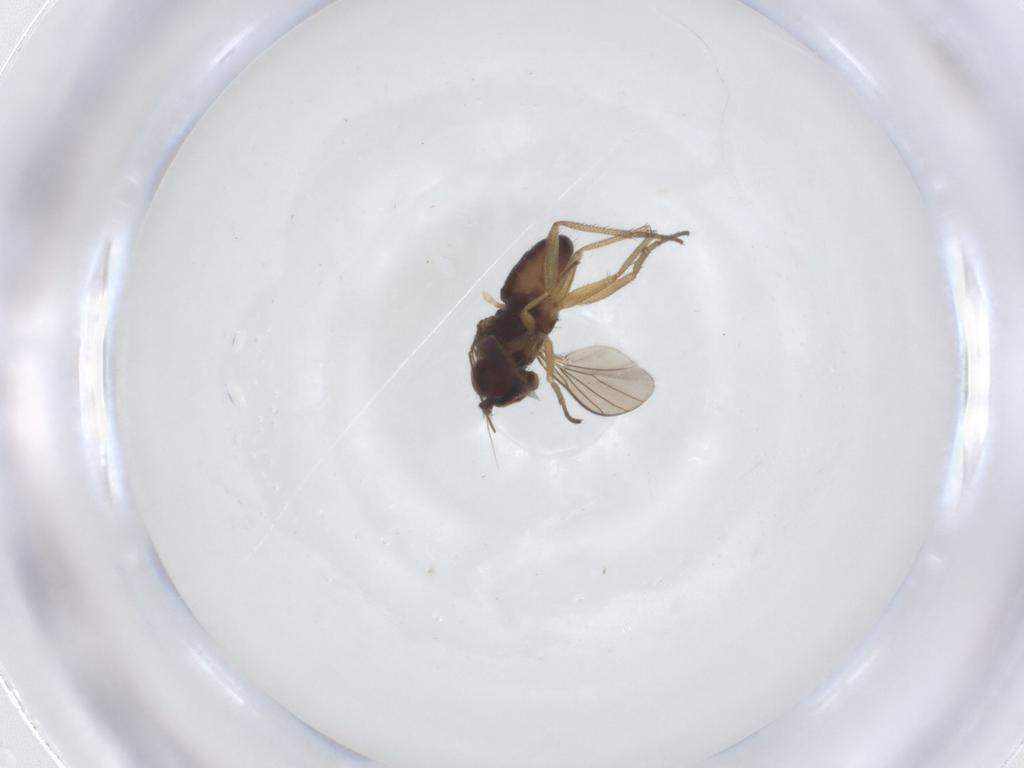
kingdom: Animalia
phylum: Arthropoda
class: Insecta
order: Diptera
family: Dolichopodidae
